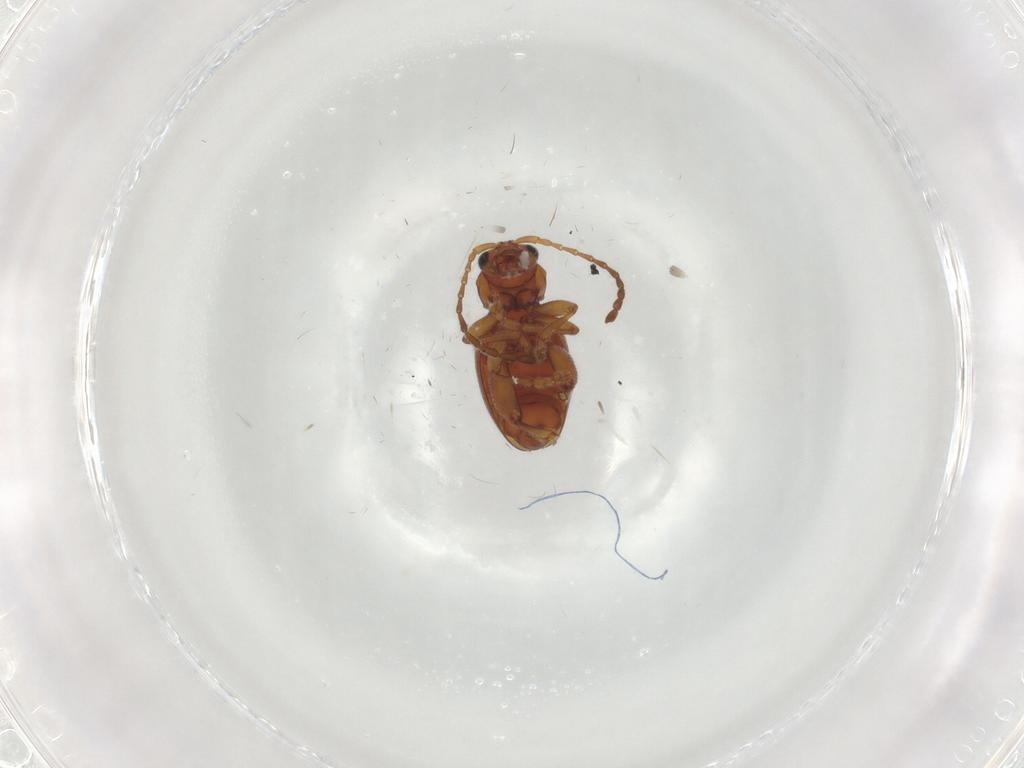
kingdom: Animalia
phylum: Arthropoda
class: Insecta
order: Coleoptera
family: Chrysomelidae
